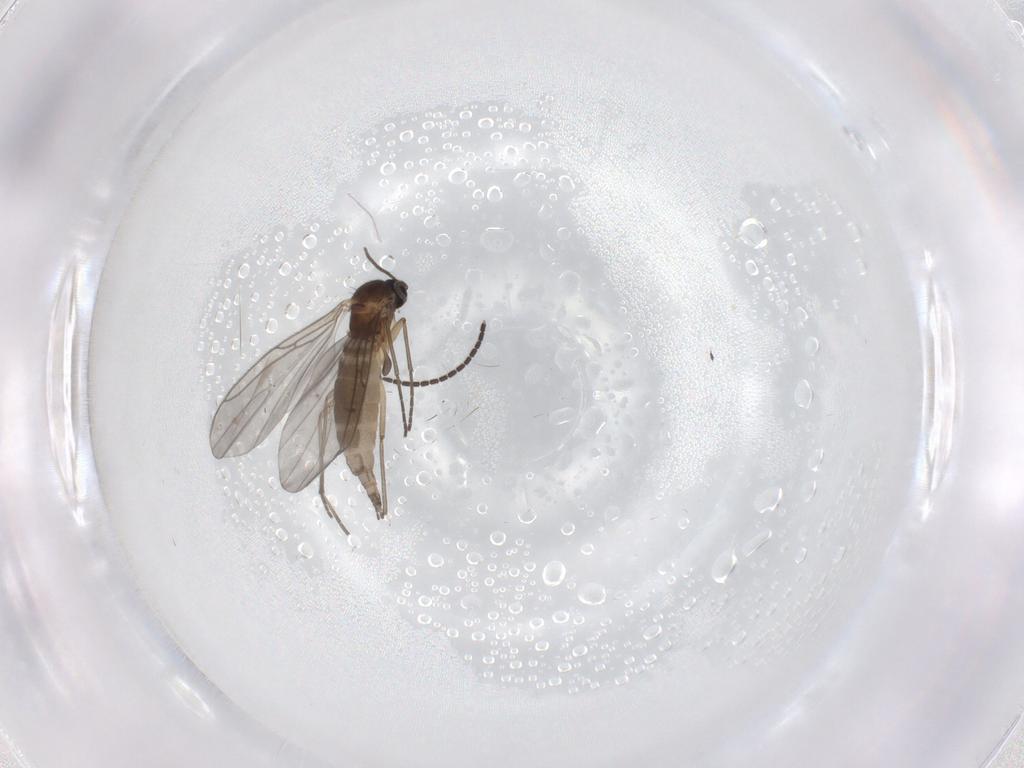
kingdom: Animalia
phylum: Arthropoda
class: Insecta
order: Diptera
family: Sciaridae
